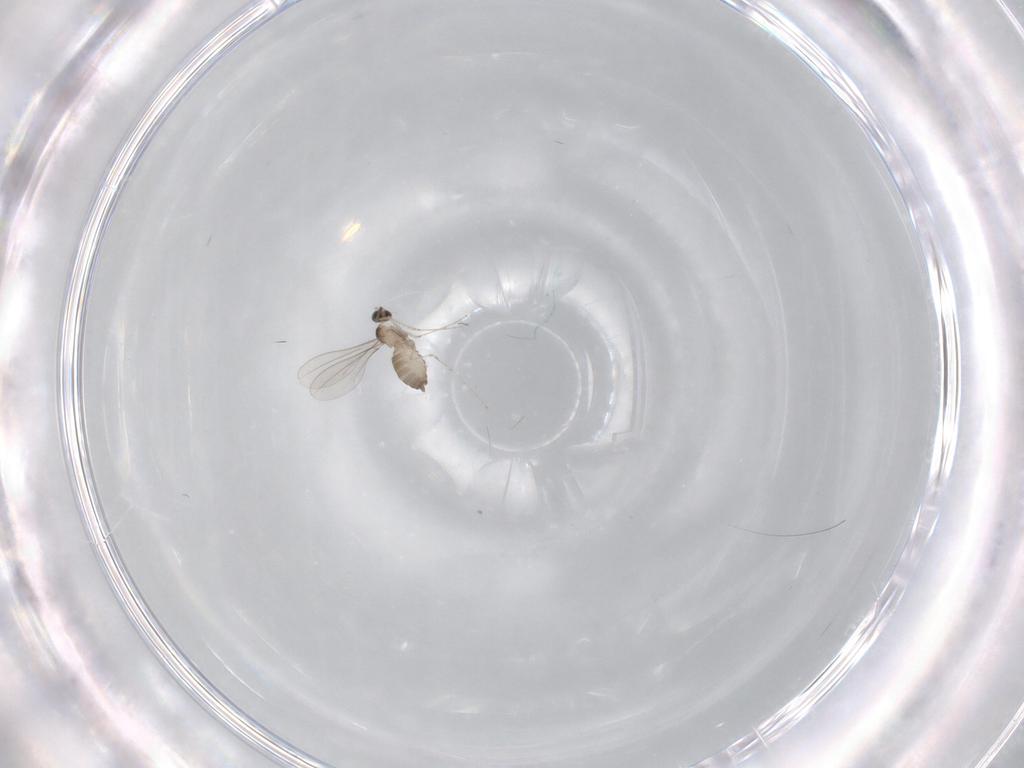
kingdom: Animalia
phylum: Arthropoda
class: Insecta
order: Diptera
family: Cecidomyiidae
